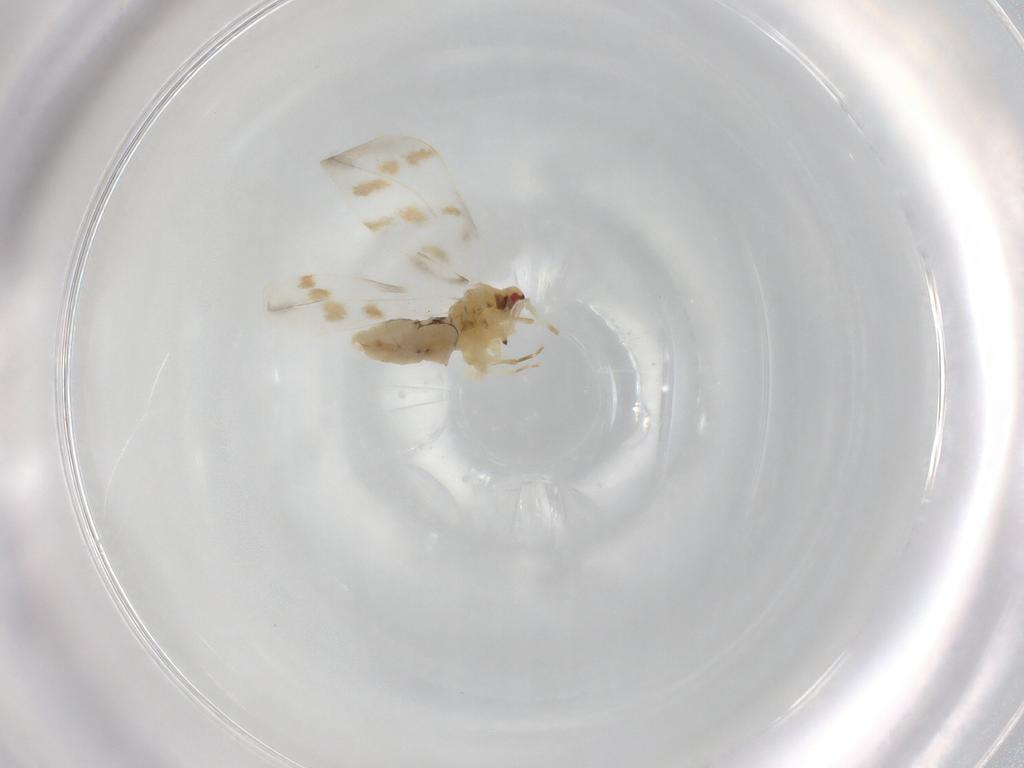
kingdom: Animalia
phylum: Arthropoda
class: Insecta
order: Hemiptera
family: Aleyrodidae
